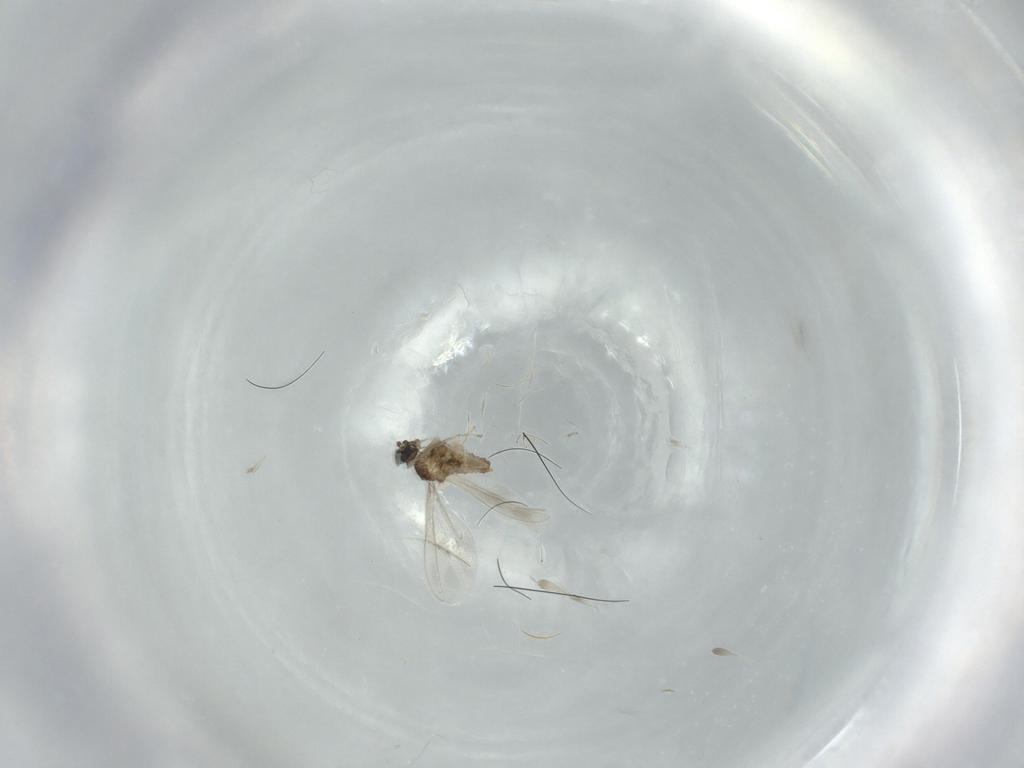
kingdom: Animalia
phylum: Arthropoda
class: Insecta
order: Diptera
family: Cecidomyiidae
